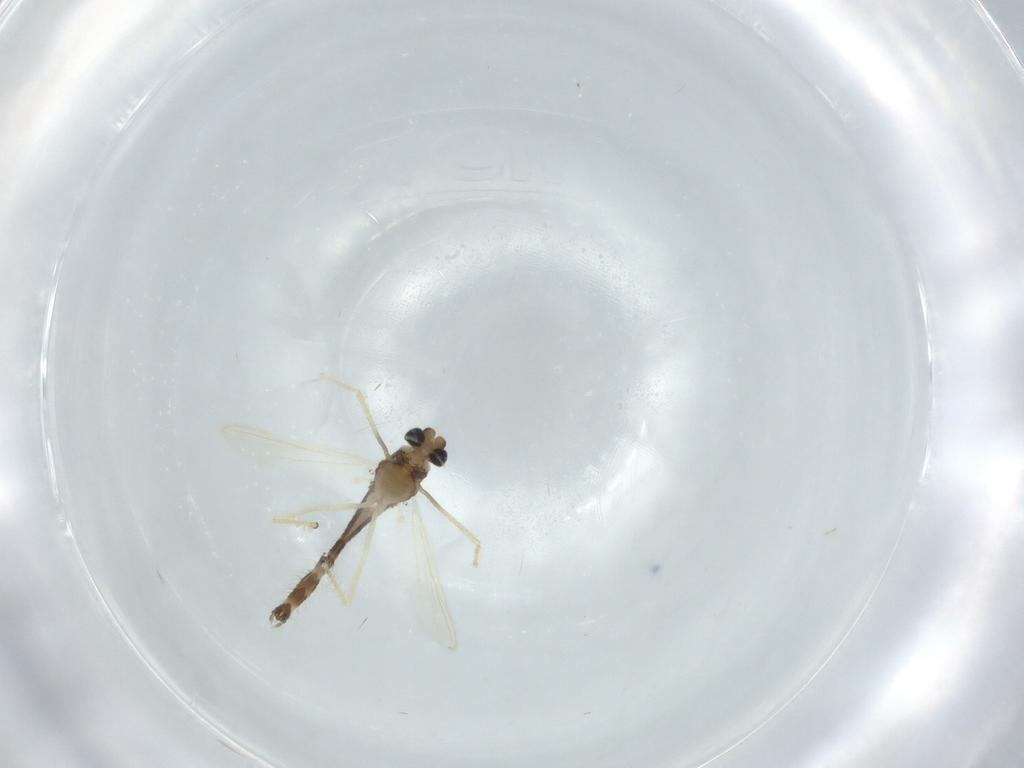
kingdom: Animalia
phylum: Arthropoda
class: Insecta
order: Diptera
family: Chironomidae
